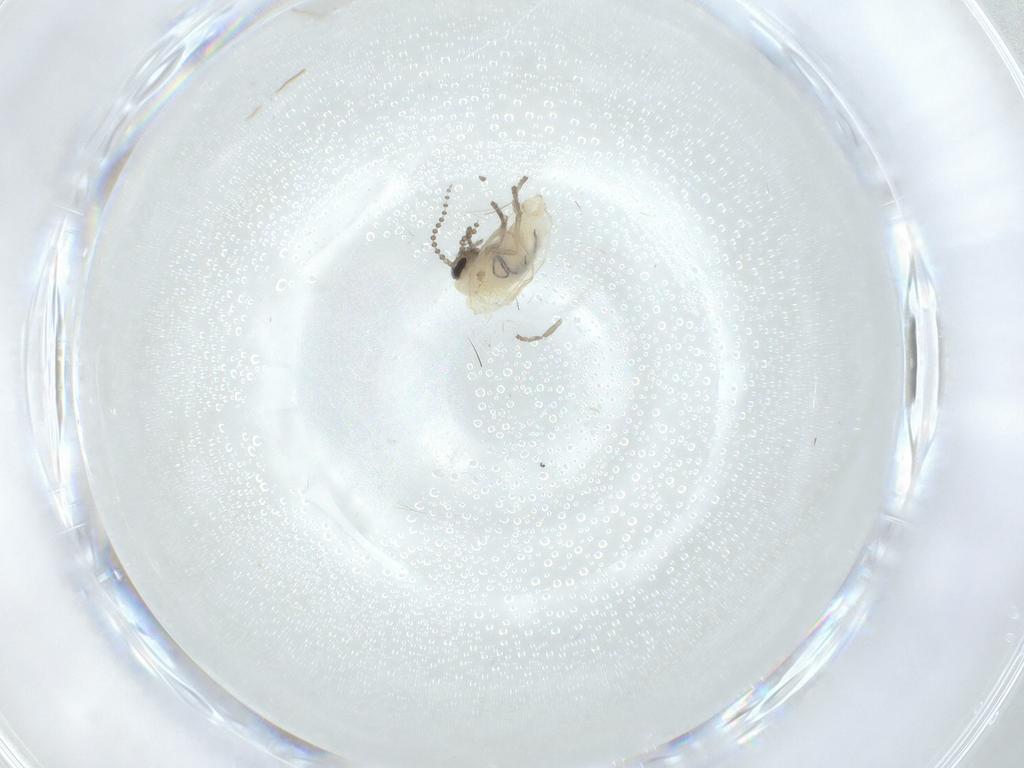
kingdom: Animalia
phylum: Arthropoda
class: Insecta
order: Diptera
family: Psychodidae
